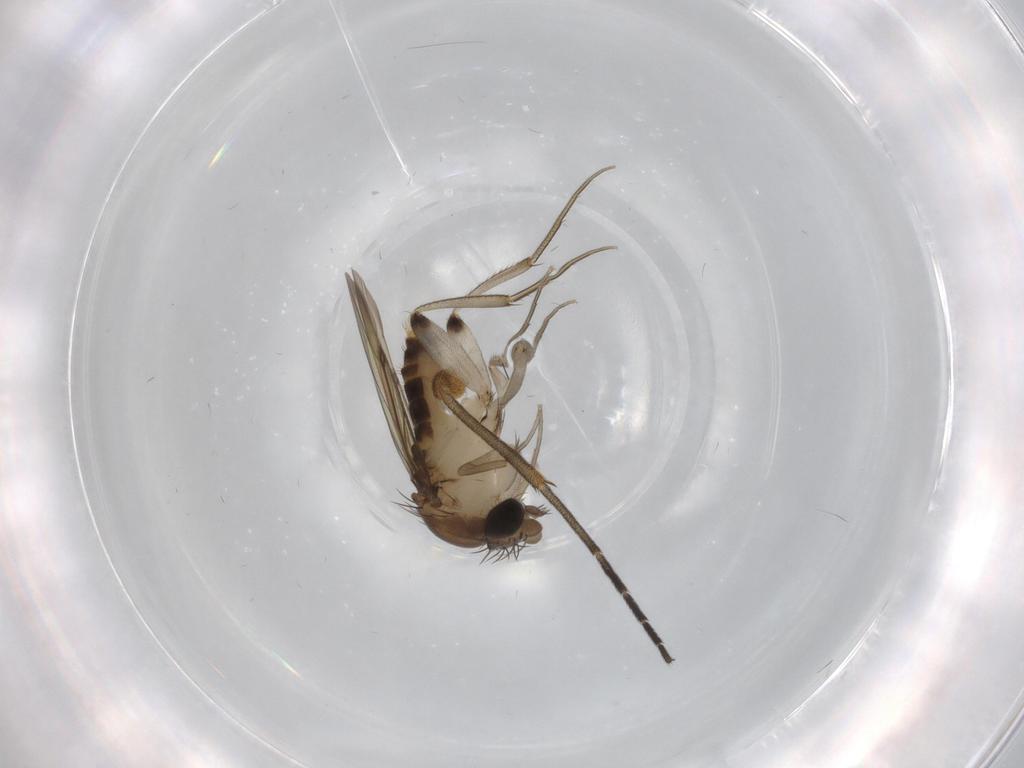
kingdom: Animalia
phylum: Arthropoda
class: Insecta
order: Diptera
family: Phoridae
